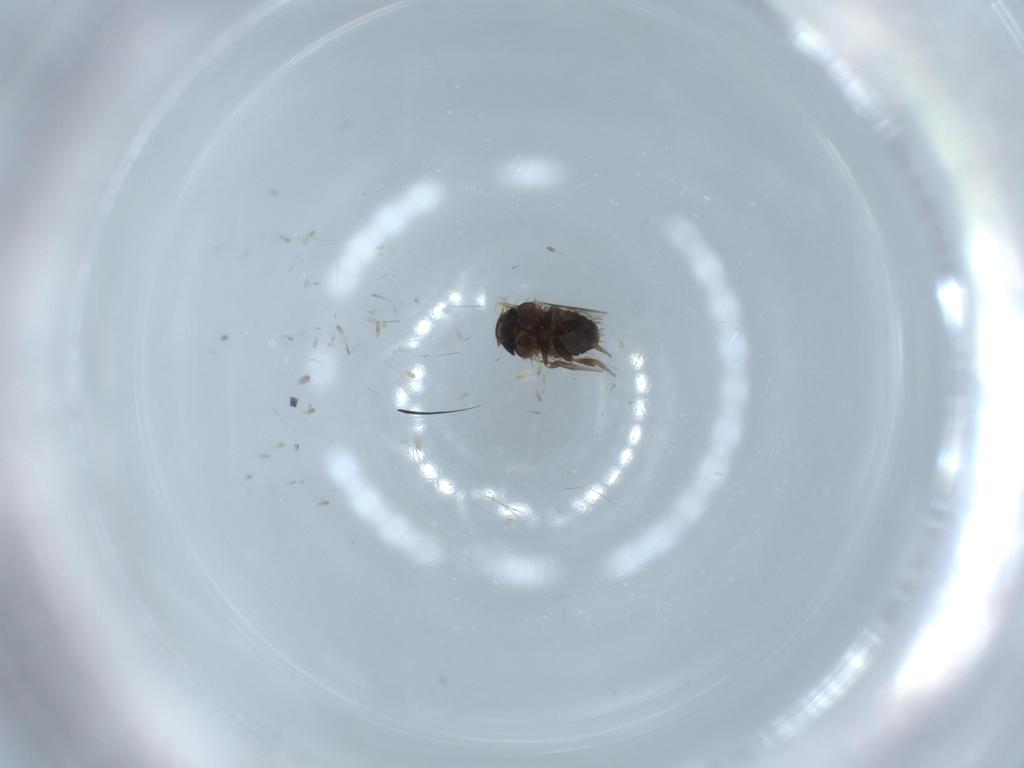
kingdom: Animalia
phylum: Arthropoda
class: Insecta
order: Diptera
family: Phoridae
